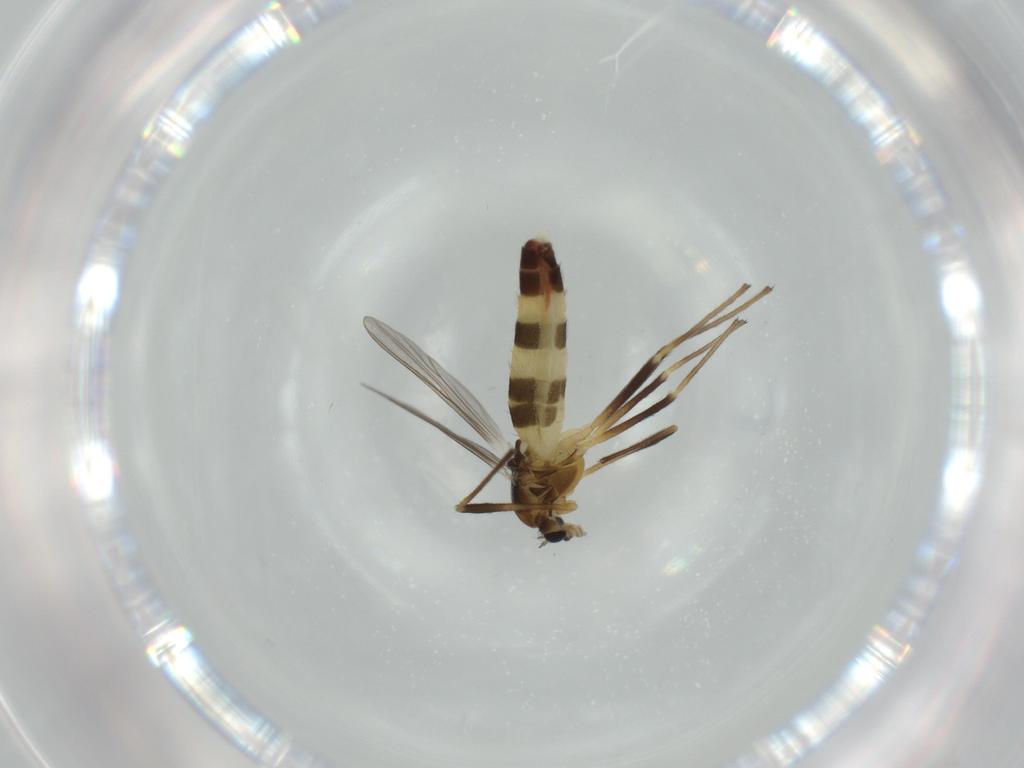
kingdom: Animalia
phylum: Arthropoda
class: Insecta
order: Diptera
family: Chironomidae
